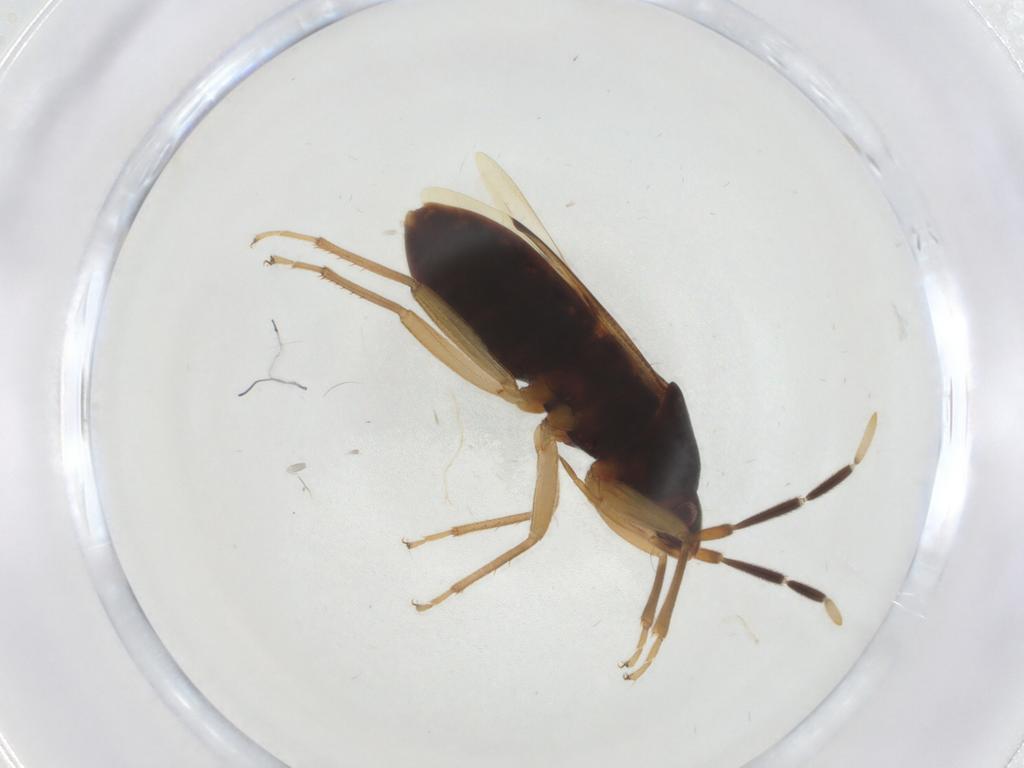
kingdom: Animalia
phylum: Arthropoda
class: Insecta
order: Hemiptera
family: Rhyparochromidae
